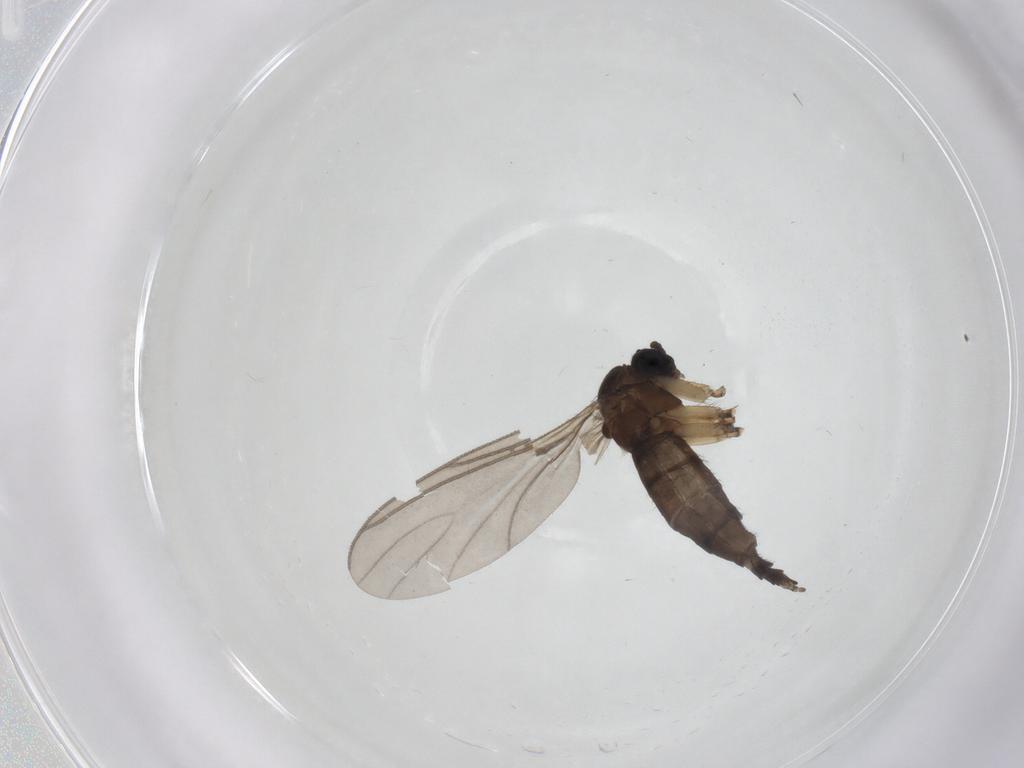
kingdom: Animalia
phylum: Arthropoda
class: Insecta
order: Diptera
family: Sciaridae
